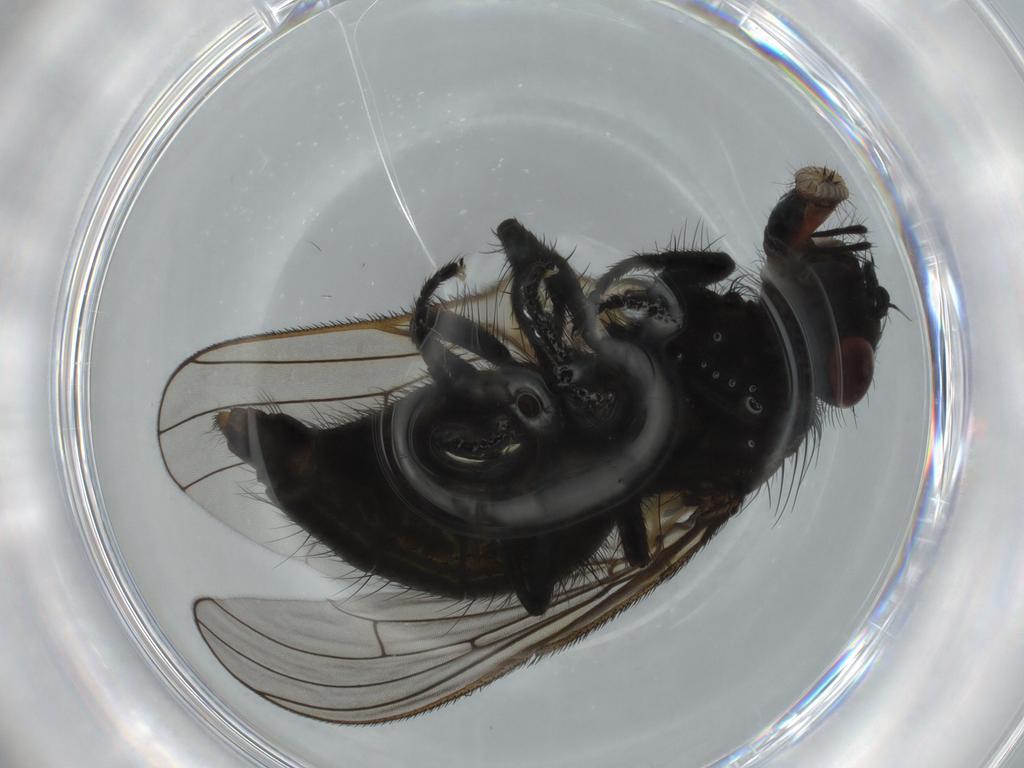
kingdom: Animalia
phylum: Arthropoda
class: Insecta
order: Diptera
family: Muscidae
